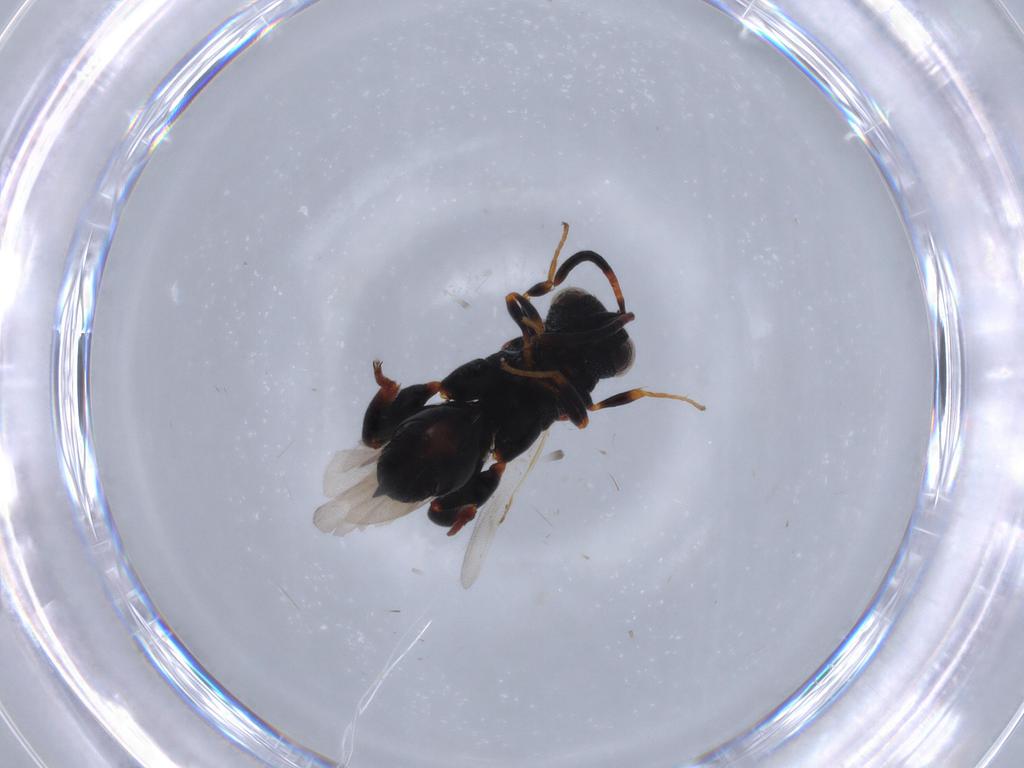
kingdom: Animalia
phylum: Arthropoda
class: Insecta
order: Hymenoptera
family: Chalcididae
